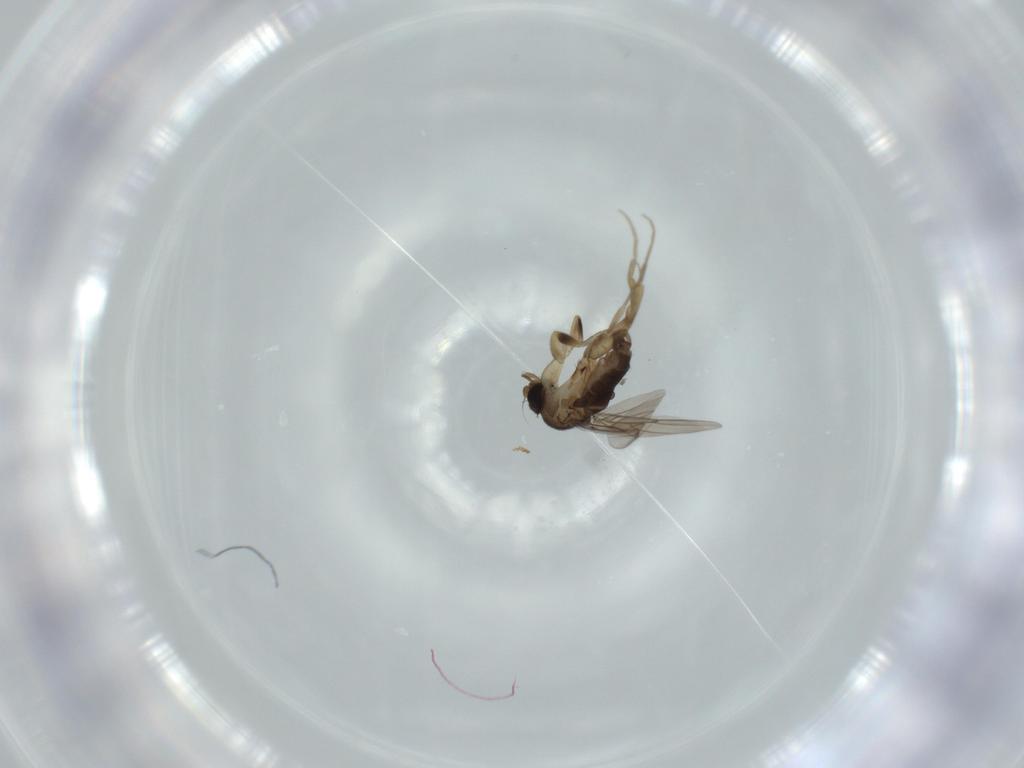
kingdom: Animalia
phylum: Arthropoda
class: Insecta
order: Diptera
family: Phoridae
